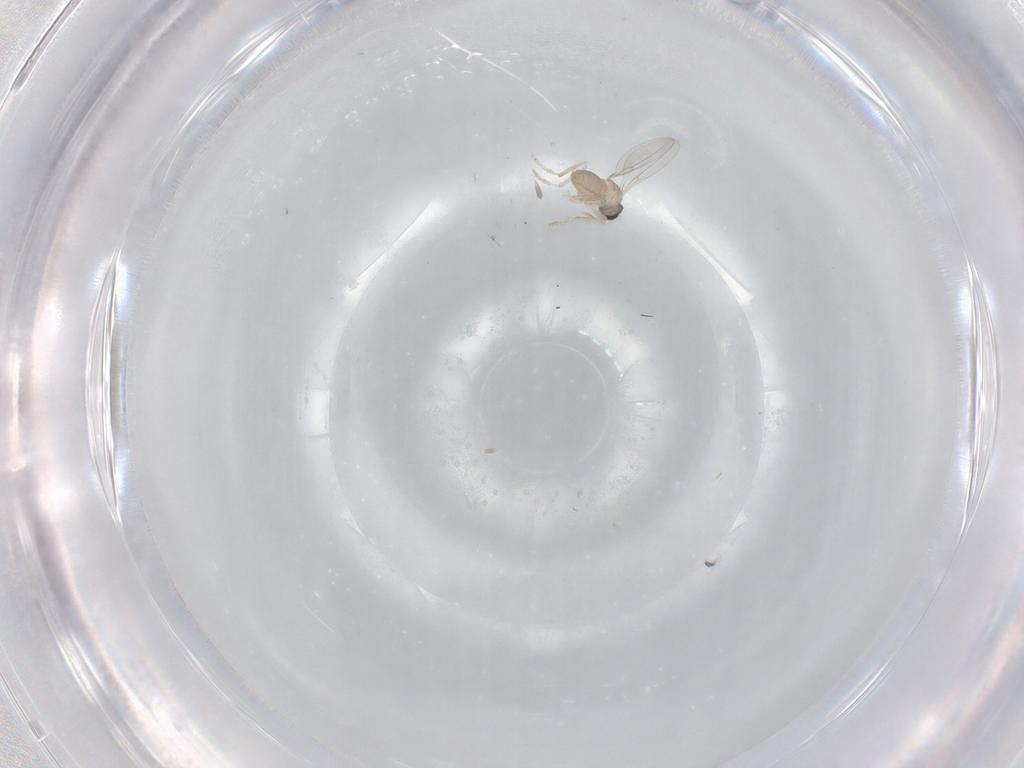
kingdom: Animalia
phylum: Arthropoda
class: Insecta
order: Diptera
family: Cecidomyiidae
